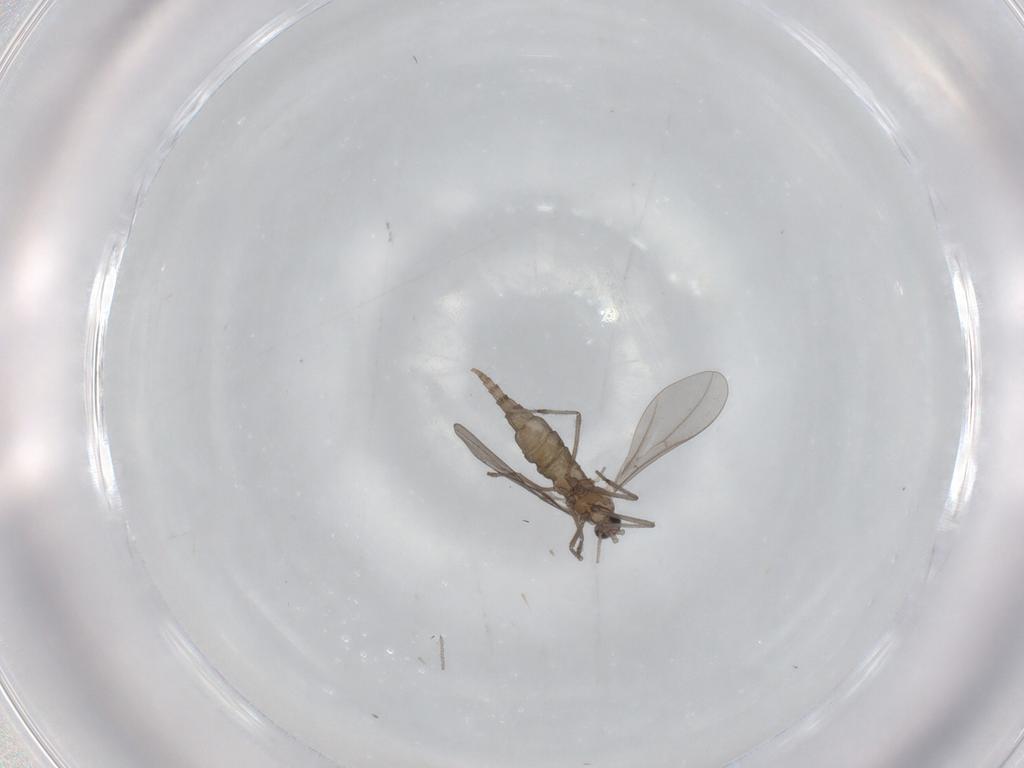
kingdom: Animalia
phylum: Arthropoda
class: Insecta
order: Diptera
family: Cecidomyiidae
